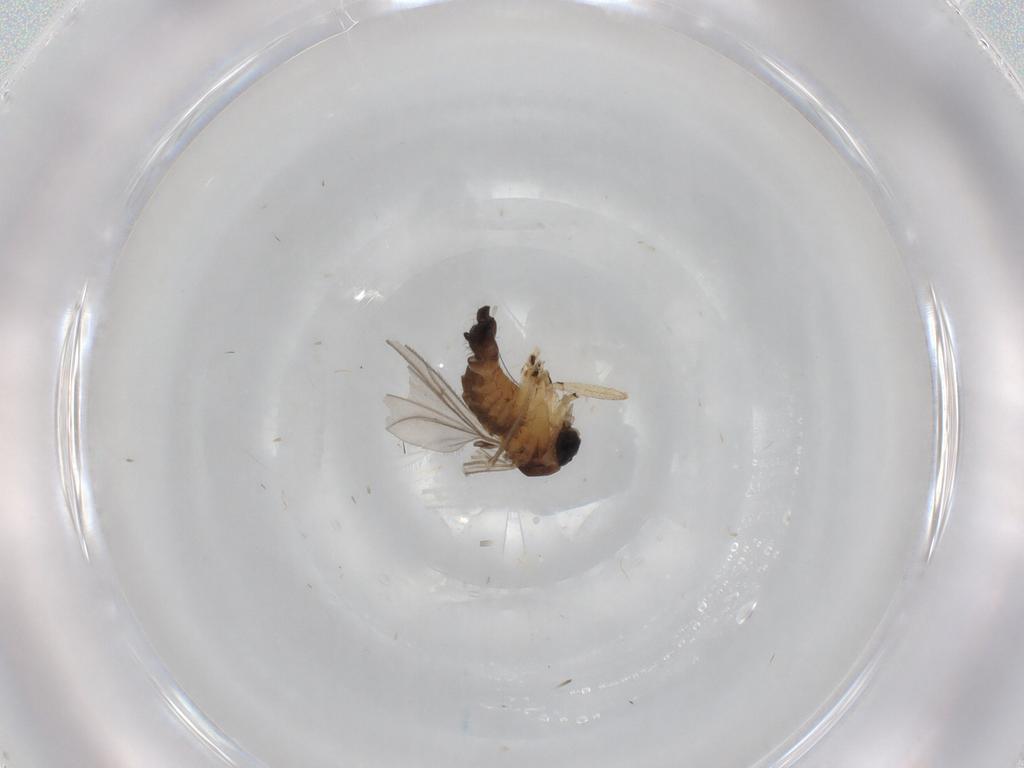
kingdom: Animalia
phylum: Arthropoda
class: Insecta
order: Diptera
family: Sciaridae
